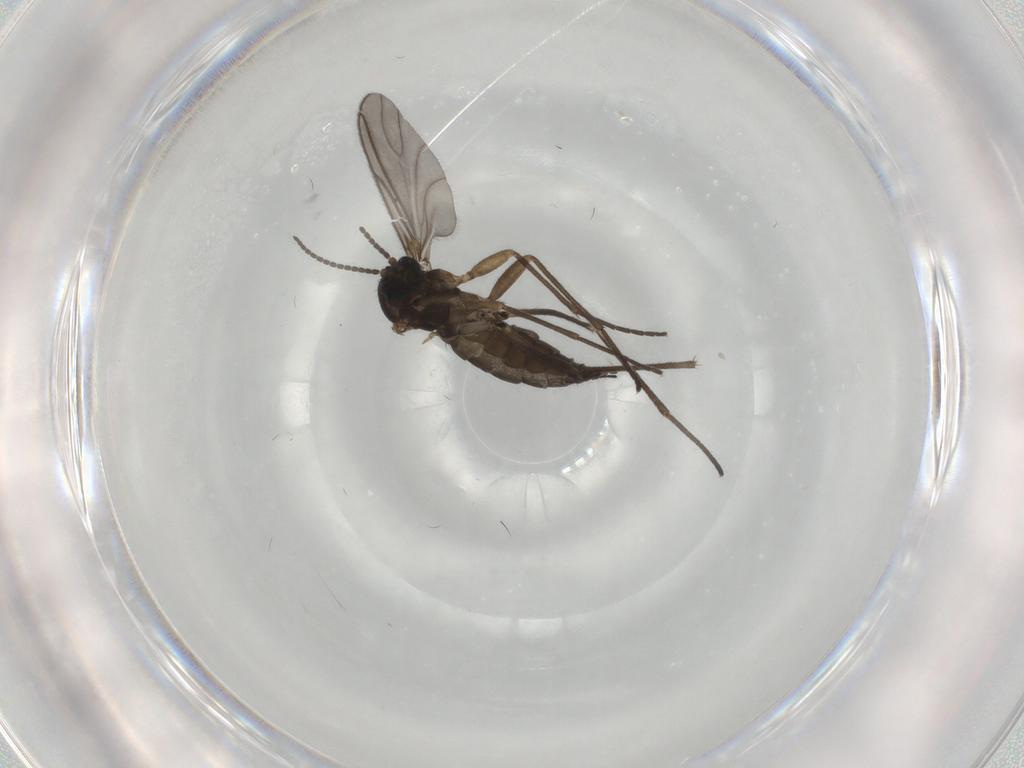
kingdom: Animalia
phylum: Arthropoda
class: Insecta
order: Diptera
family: Sciaridae
